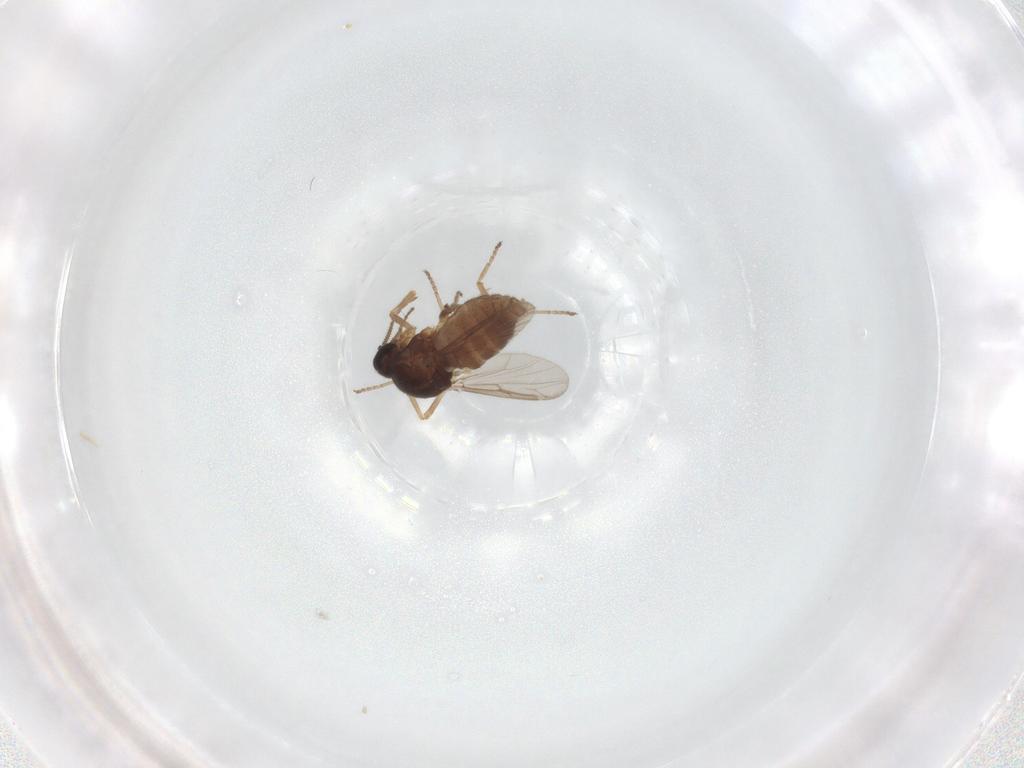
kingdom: Animalia
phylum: Arthropoda
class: Insecta
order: Diptera
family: Ceratopogonidae
